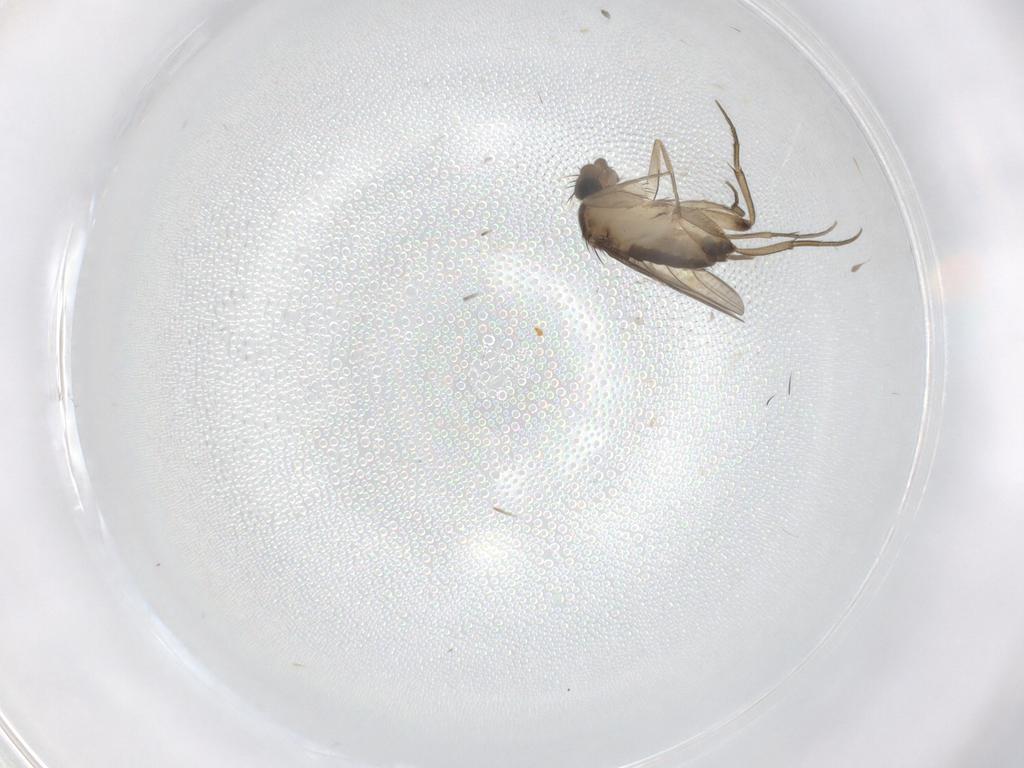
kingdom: Animalia
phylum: Arthropoda
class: Insecta
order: Diptera
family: Phoridae
